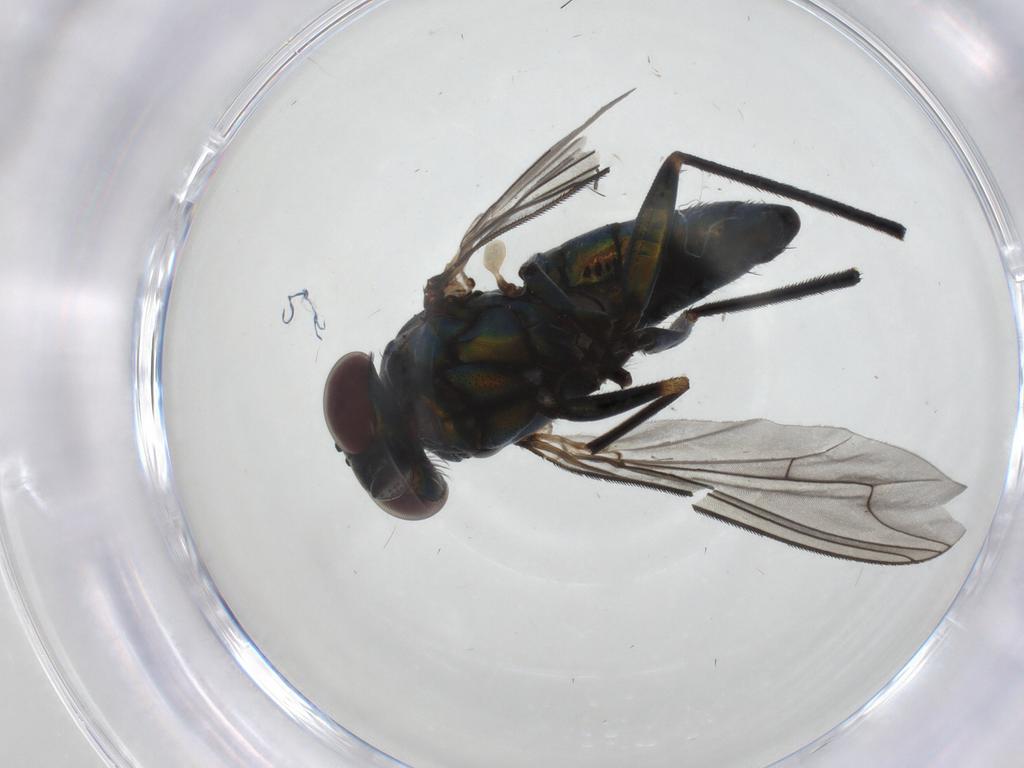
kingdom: Animalia
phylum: Arthropoda
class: Insecta
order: Diptera
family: Dolichopodidae
